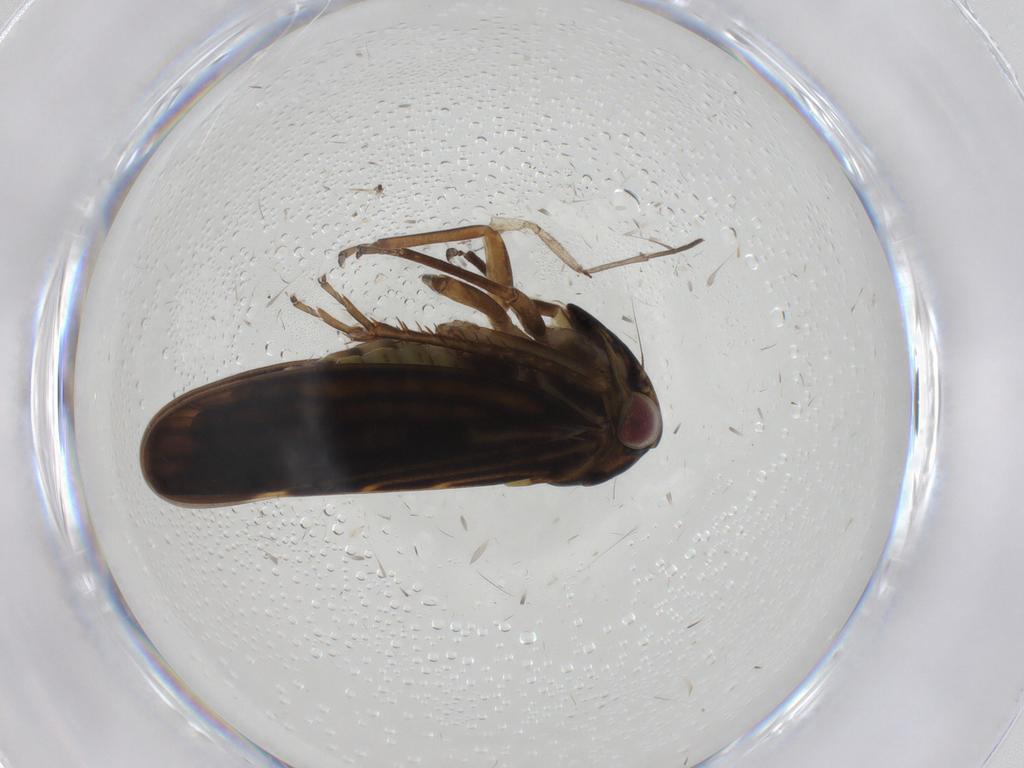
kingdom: Animalia
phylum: Arthropoda
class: Insecta
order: Hemiptera
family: Cicadellidae
